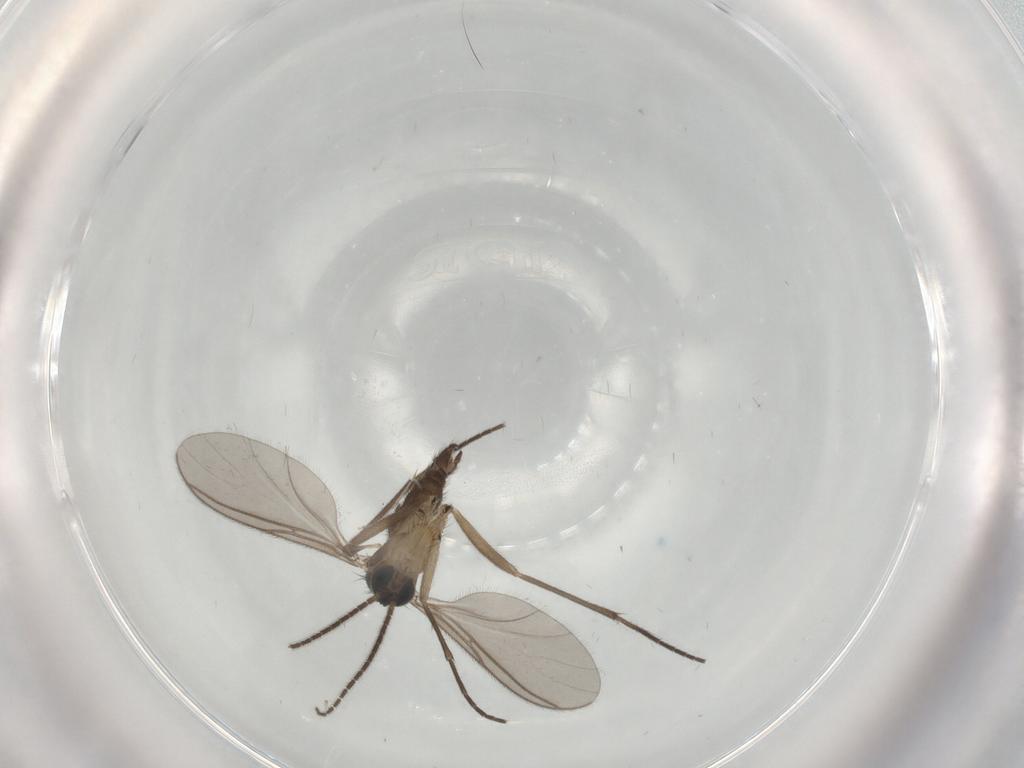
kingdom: Animalia
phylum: Arthropoda
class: Insecta
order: Diptera
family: Sciaridae
